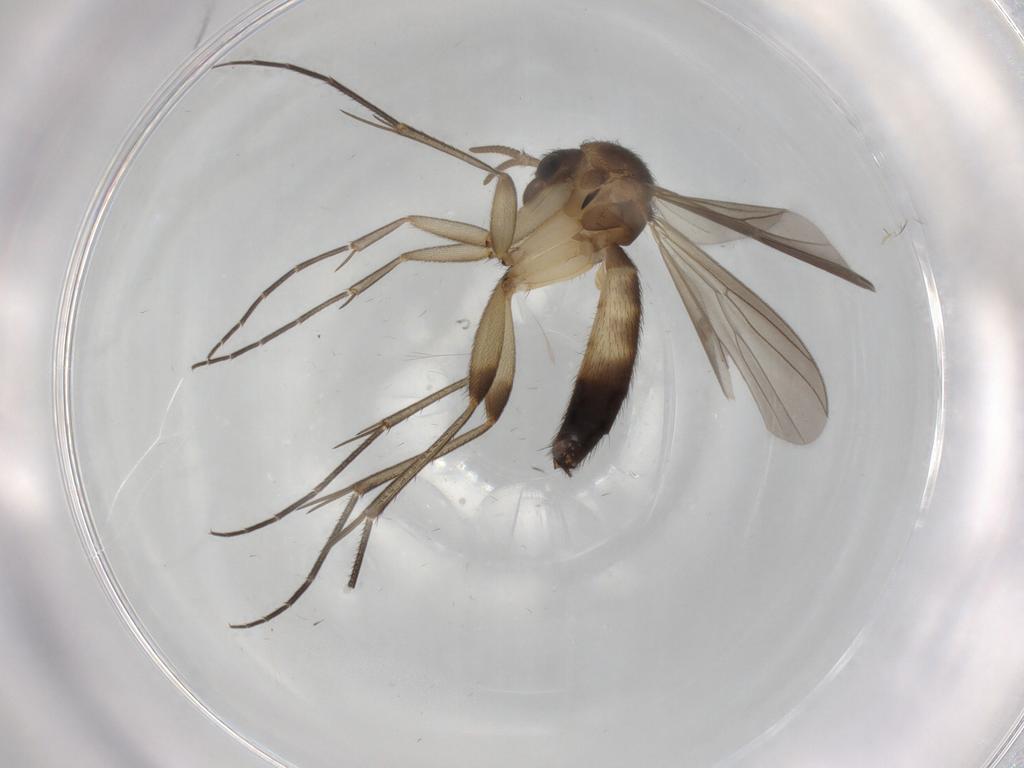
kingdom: Animalia
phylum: Arthropoda
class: Insecta
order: Diptera
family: Mycetophilidae
